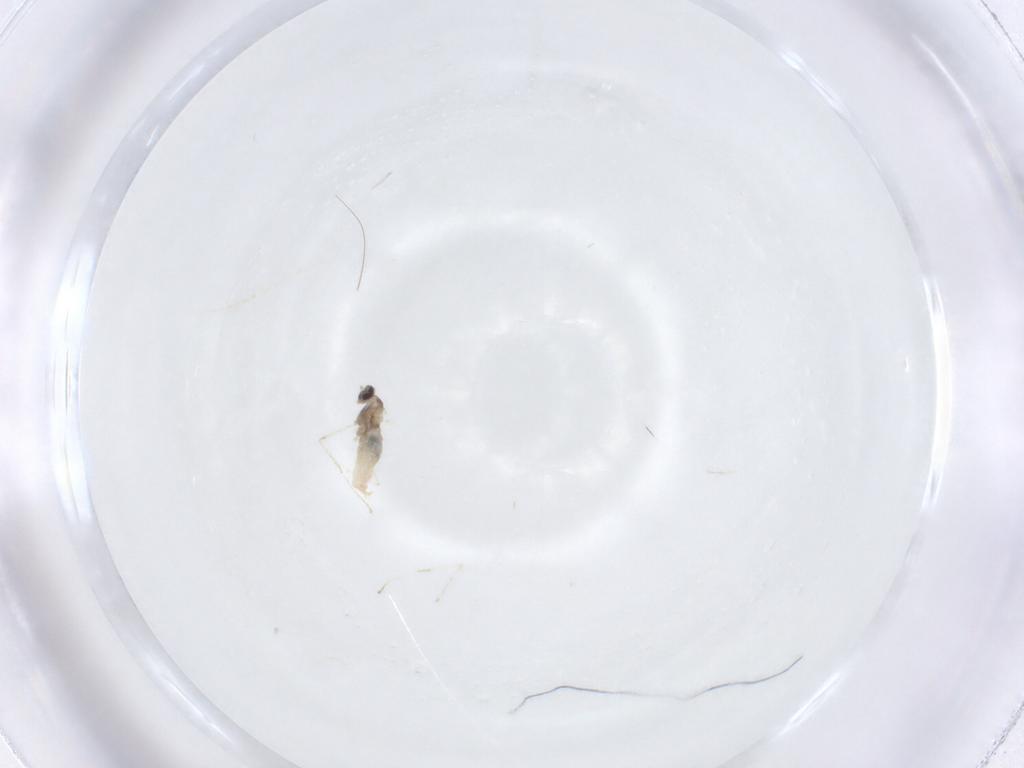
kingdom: Animalia
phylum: Arthropoda
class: Insecta
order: Diptera
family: Cecidomyiidae
